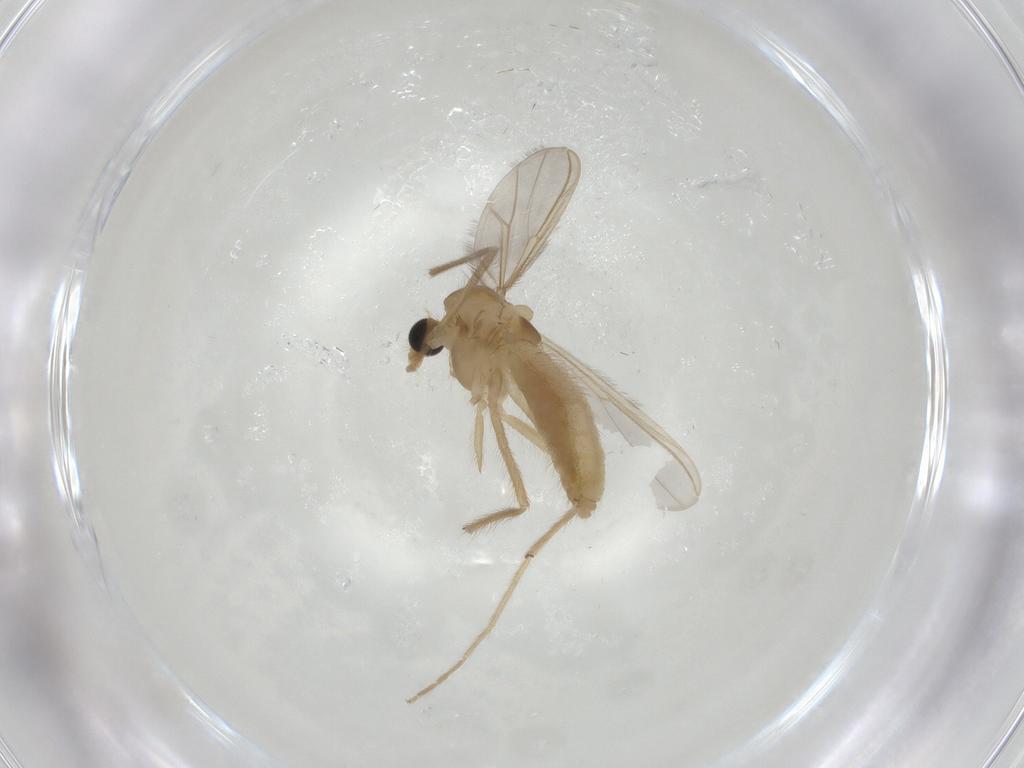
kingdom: Animalia
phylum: Arthropoda
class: Insecta
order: Diptera
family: Chironomidae
